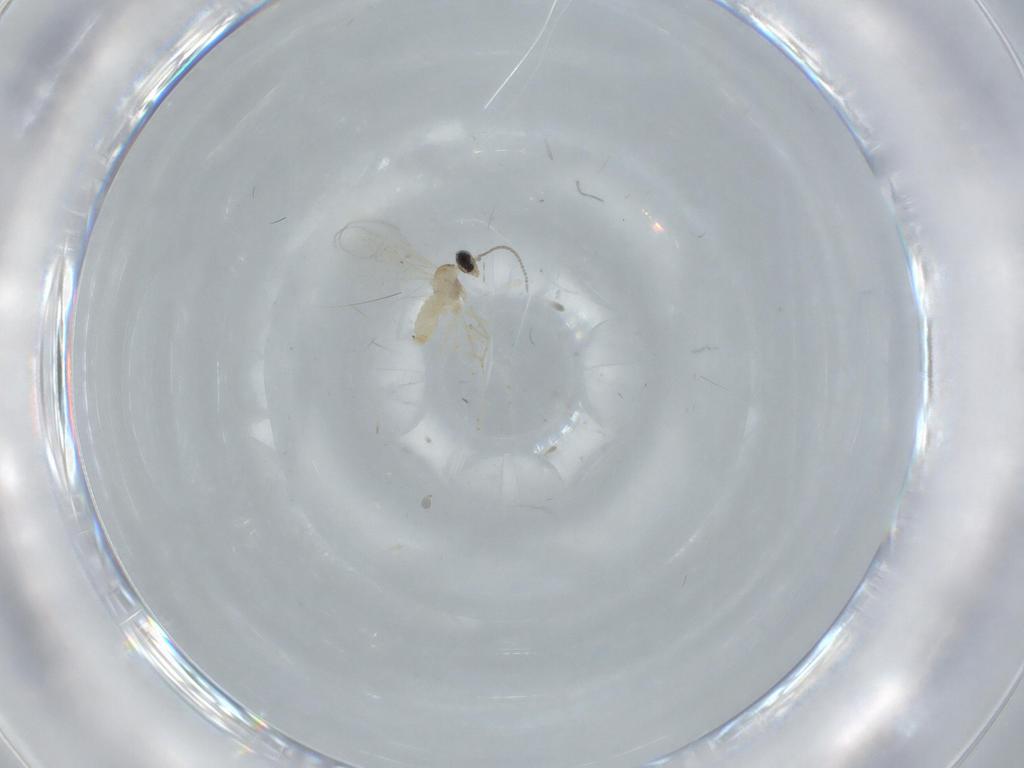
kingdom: Animalia
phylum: Arthropoda
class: Insecta
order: Diptera
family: Cecidomyiidae
